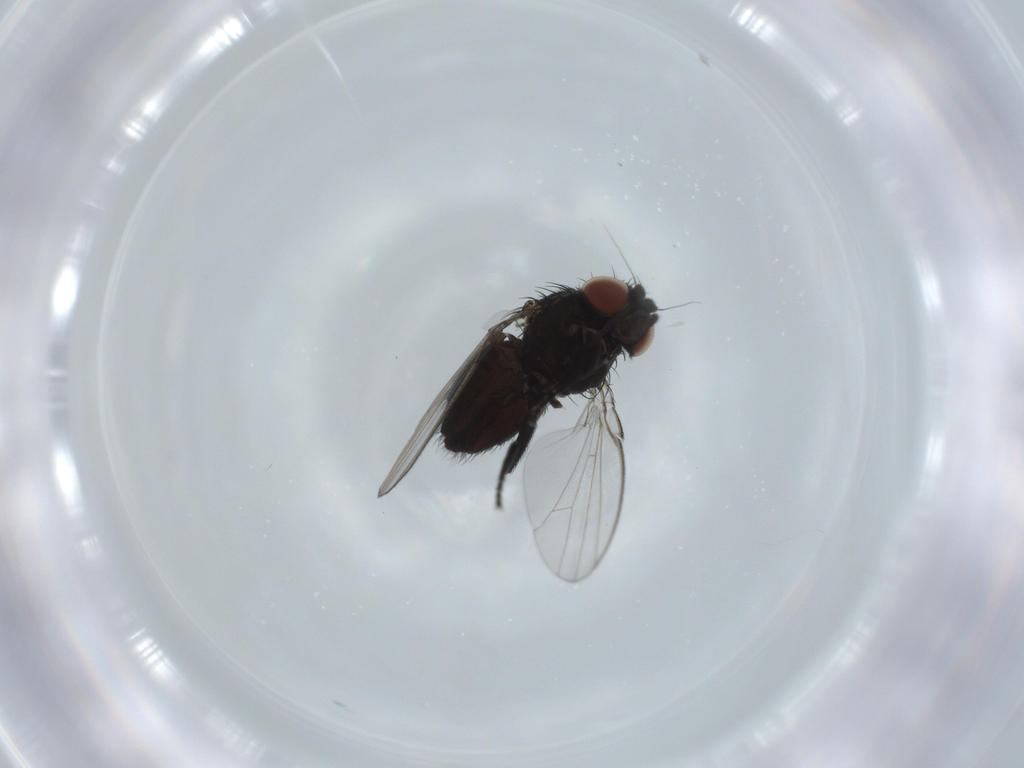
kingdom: Animalia
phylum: Arthropoda
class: Insecta
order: Diptera
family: Milichiidae
